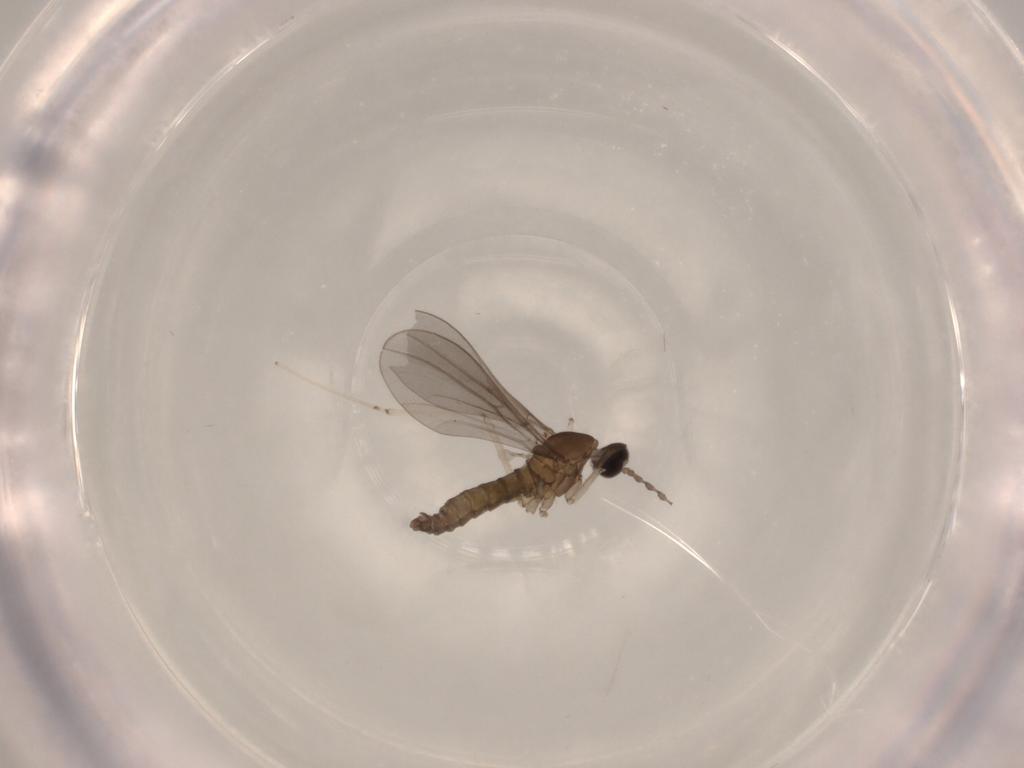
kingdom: Animalia
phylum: Arthropoda
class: Insecta
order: Diptera
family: Cecidomyiidae
